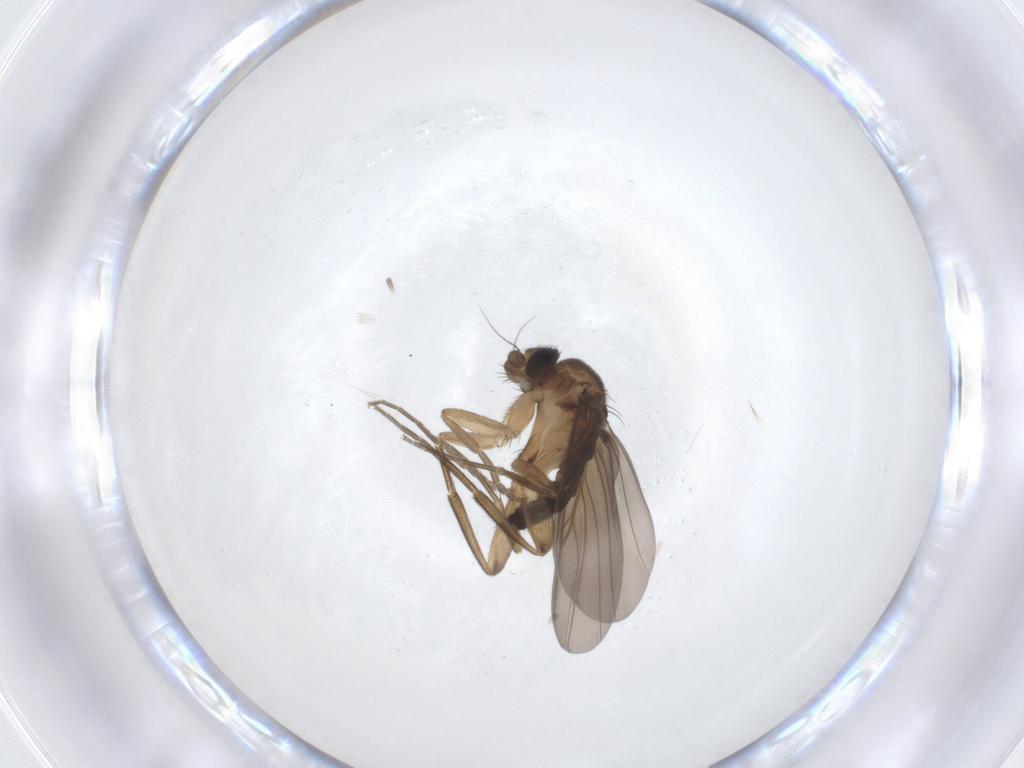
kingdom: Animalia
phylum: Arthropoda
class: Insecta
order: Diptera
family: Phoridae
